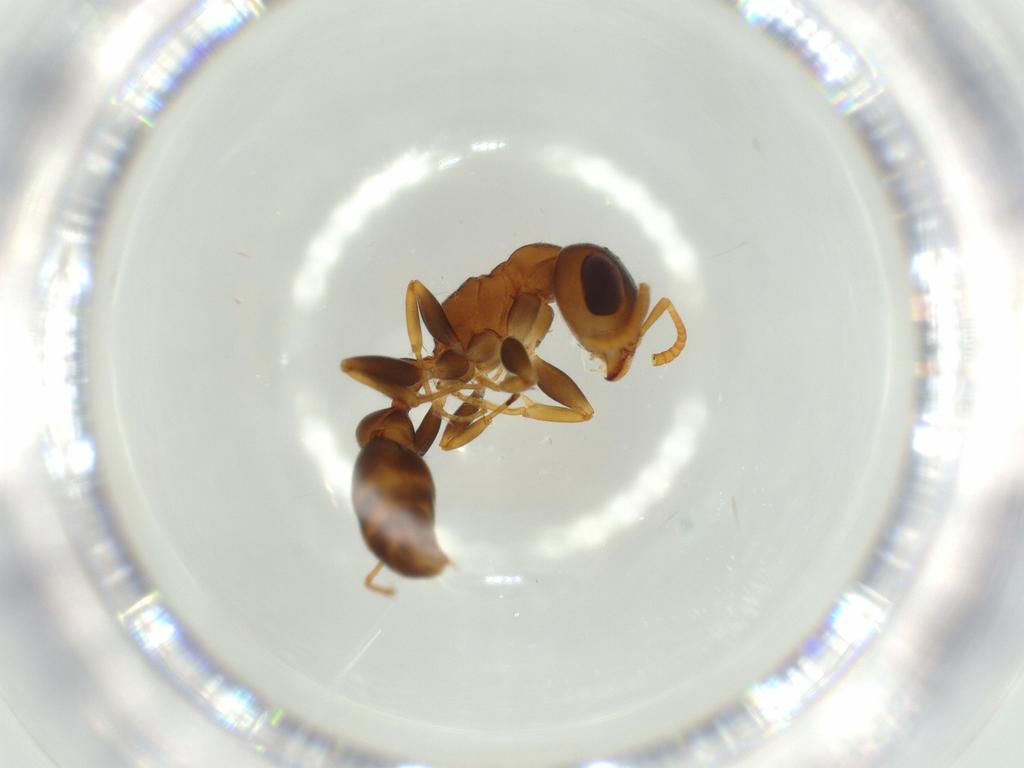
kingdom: Animalia
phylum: Arthropoda
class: Insecta
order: Hymenoptera
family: Formicidae
